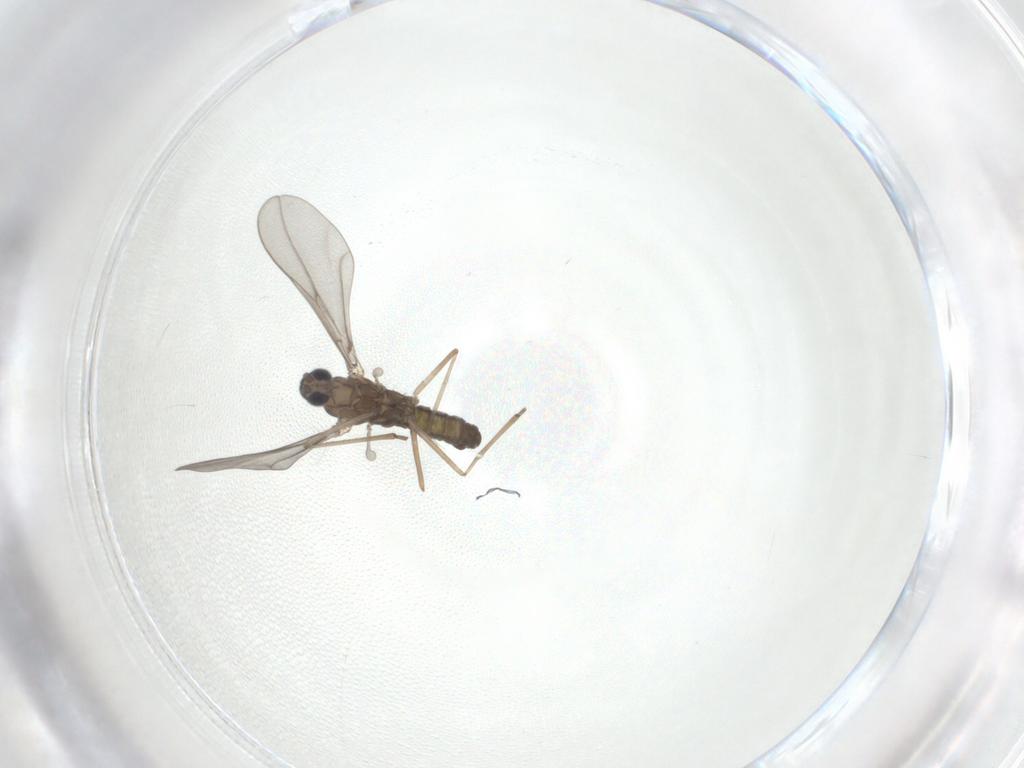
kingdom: Animalia
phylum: Arthropoda
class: Insecta
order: Diptera
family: Cecidomyiidae
